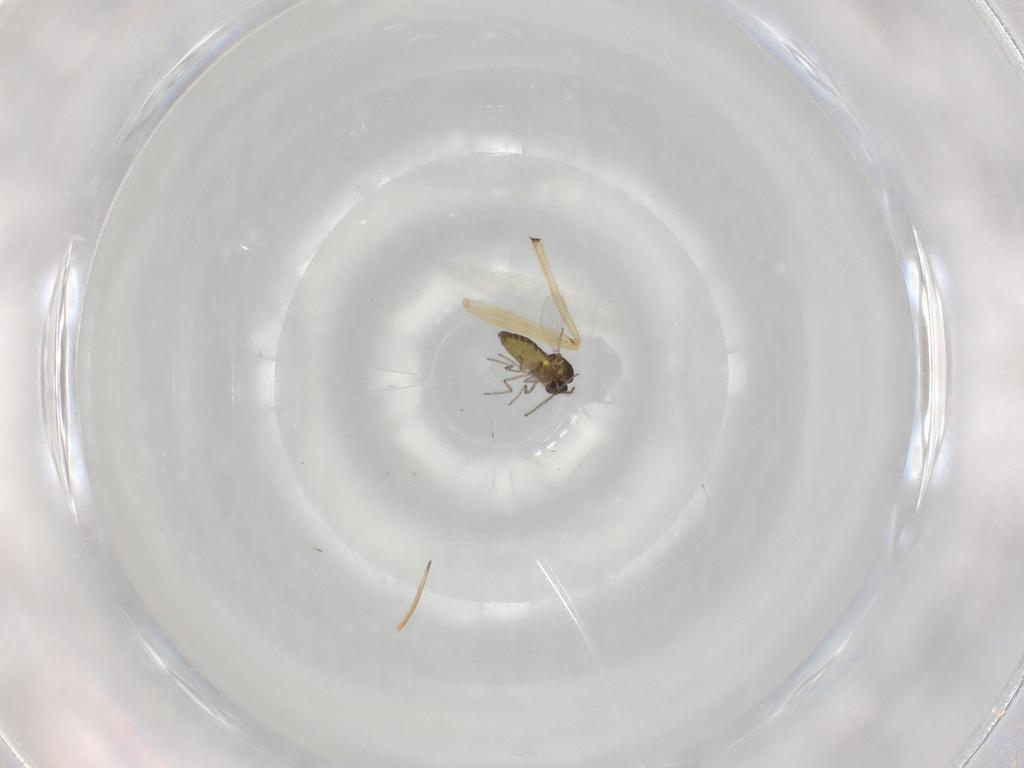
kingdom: Animalia
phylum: Arthropoda
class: Insecta
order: Diptera
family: Ceratopogonidae
